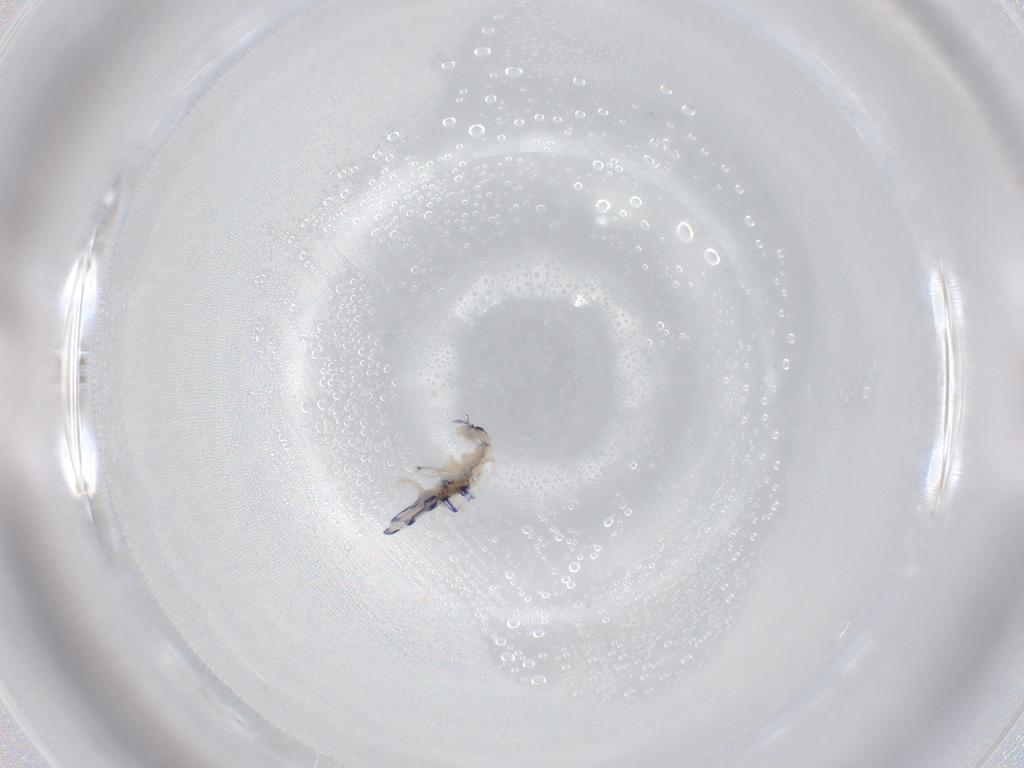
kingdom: Animalia
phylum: Arthropoda
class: Collembola
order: Entomobryomorpha
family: Entomobryidae
